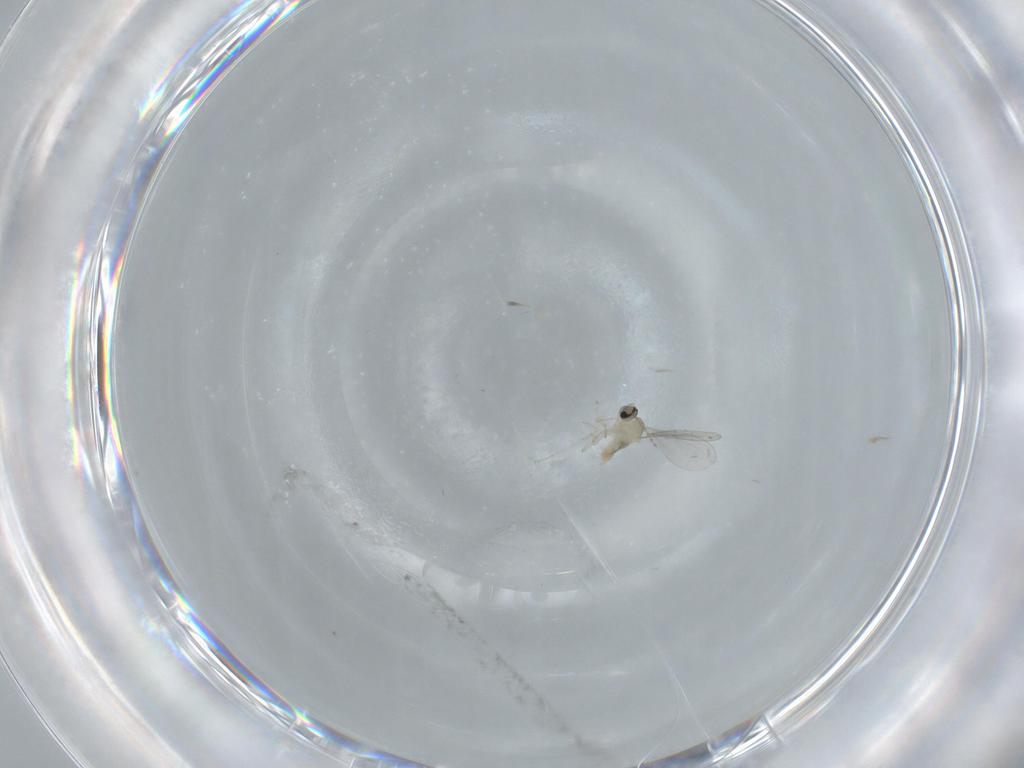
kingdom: Animalia
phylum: Arthropoda
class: Insecta
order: Diptera
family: Cecidomyiidae
